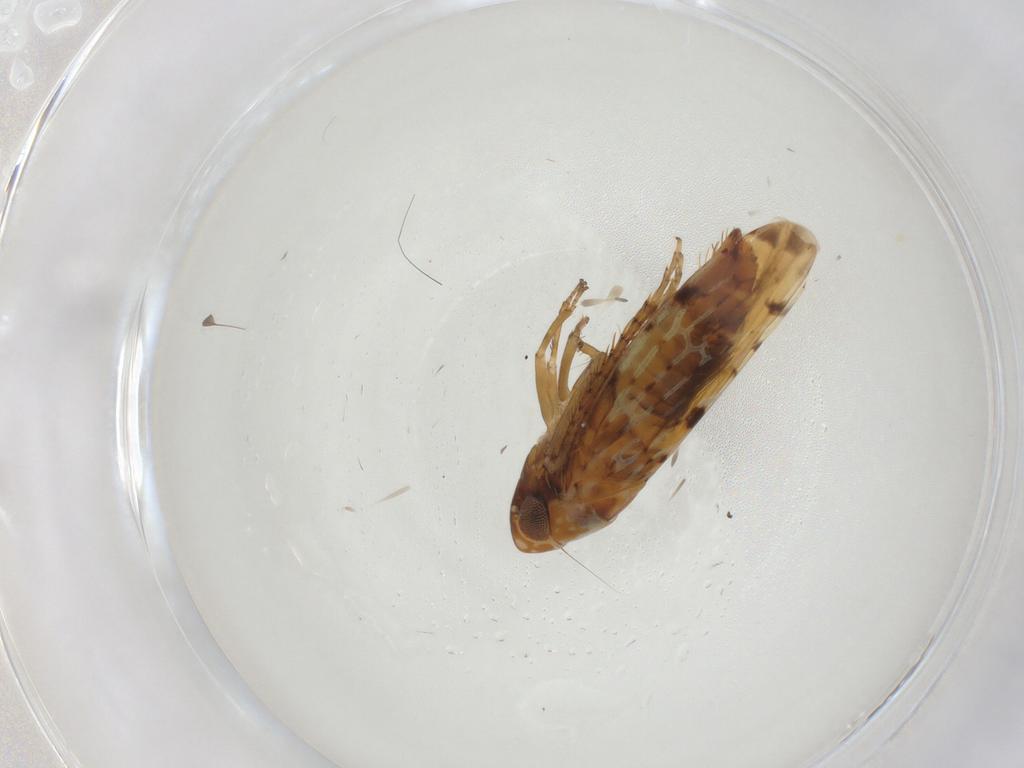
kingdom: Animalia
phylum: Arthropoda
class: Insecta
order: Hemiptera
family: Cicadellidae
